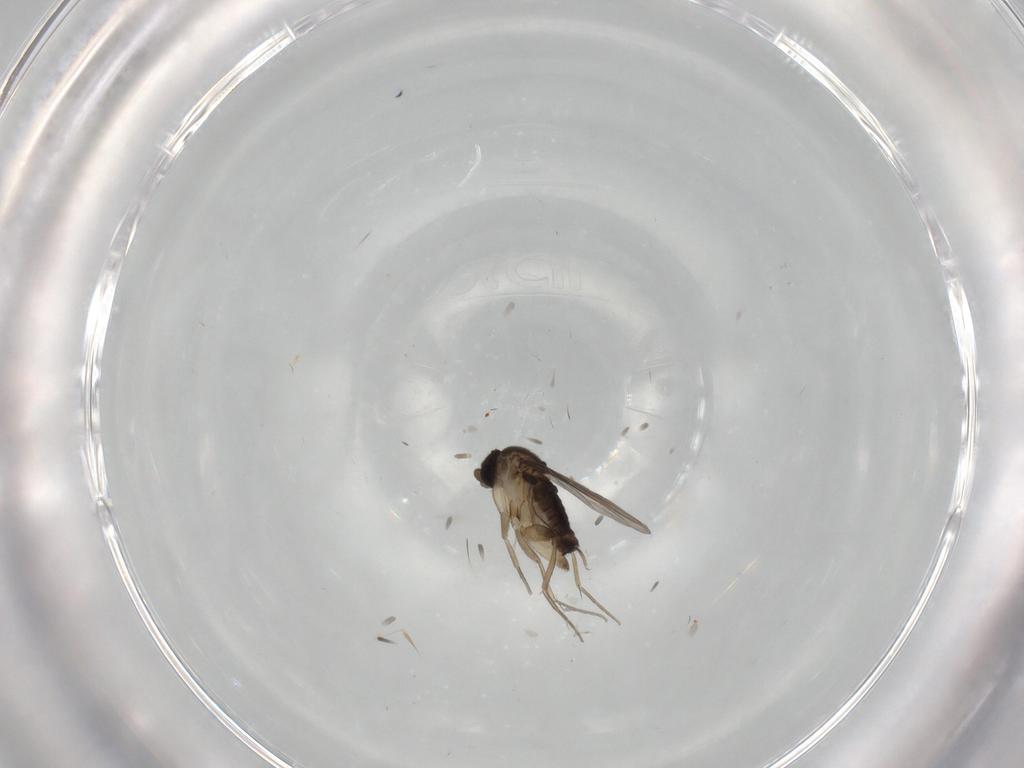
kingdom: Animalia
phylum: Arthropoda
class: Insecta
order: Diptera
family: Phoridae
